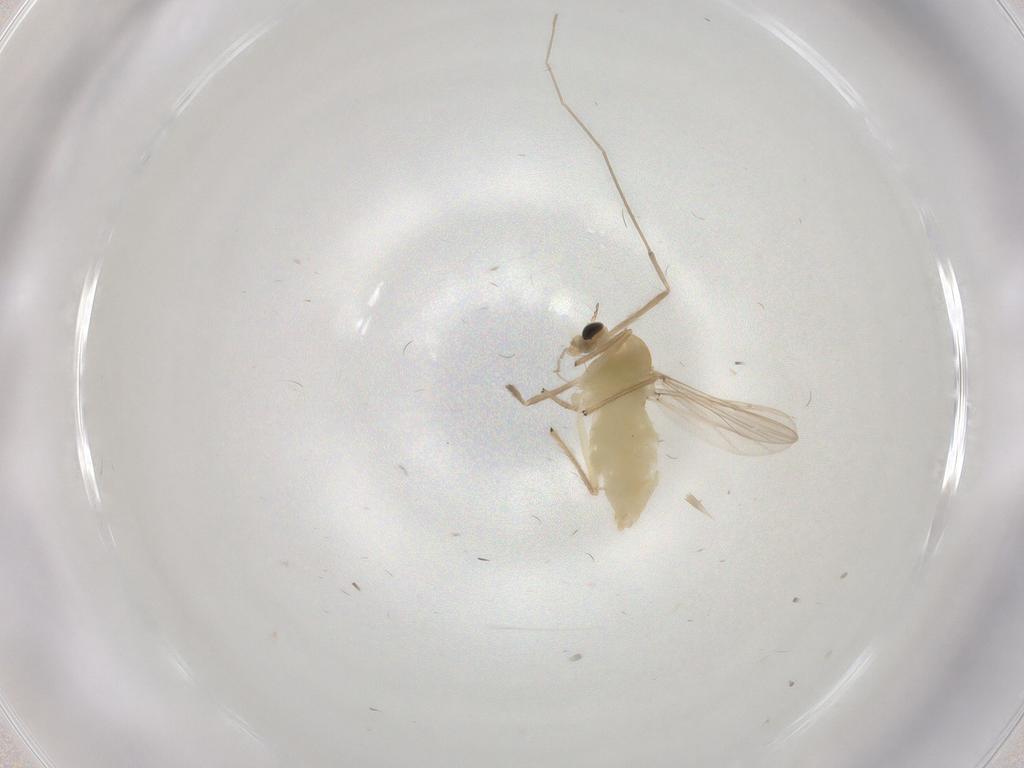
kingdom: Animalia
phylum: Arthropoda
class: Insecta
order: Diptera
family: Chironomidae
